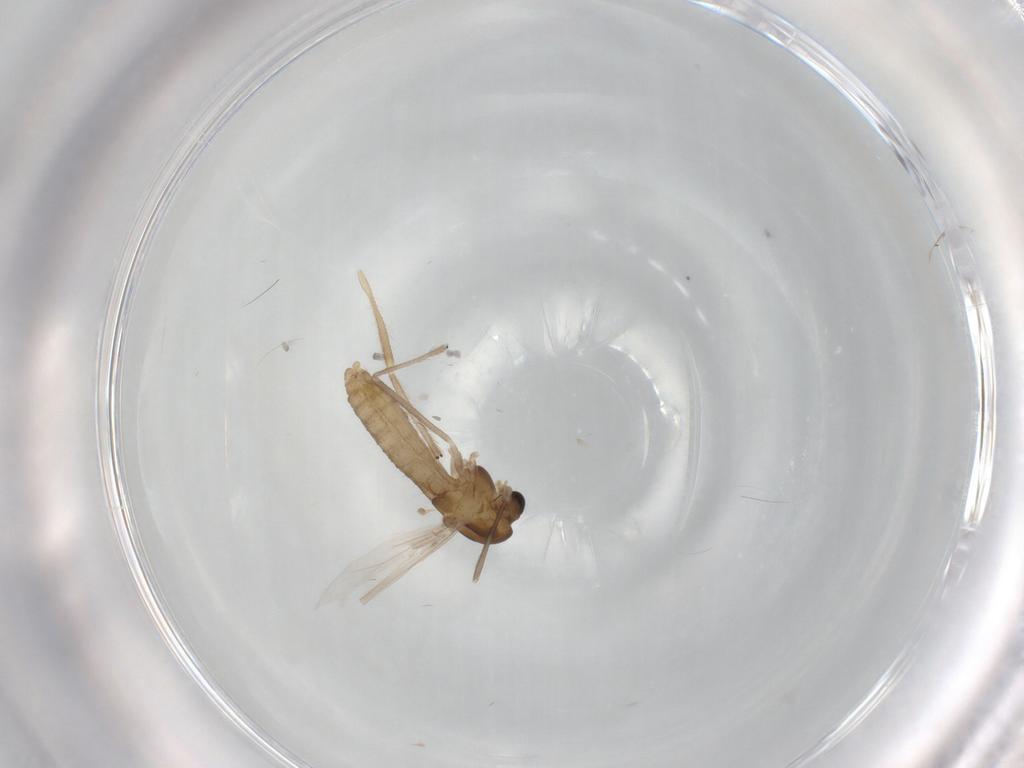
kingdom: Animalia
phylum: Arthropoda
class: Insecta
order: Diptera
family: Chironomidae
